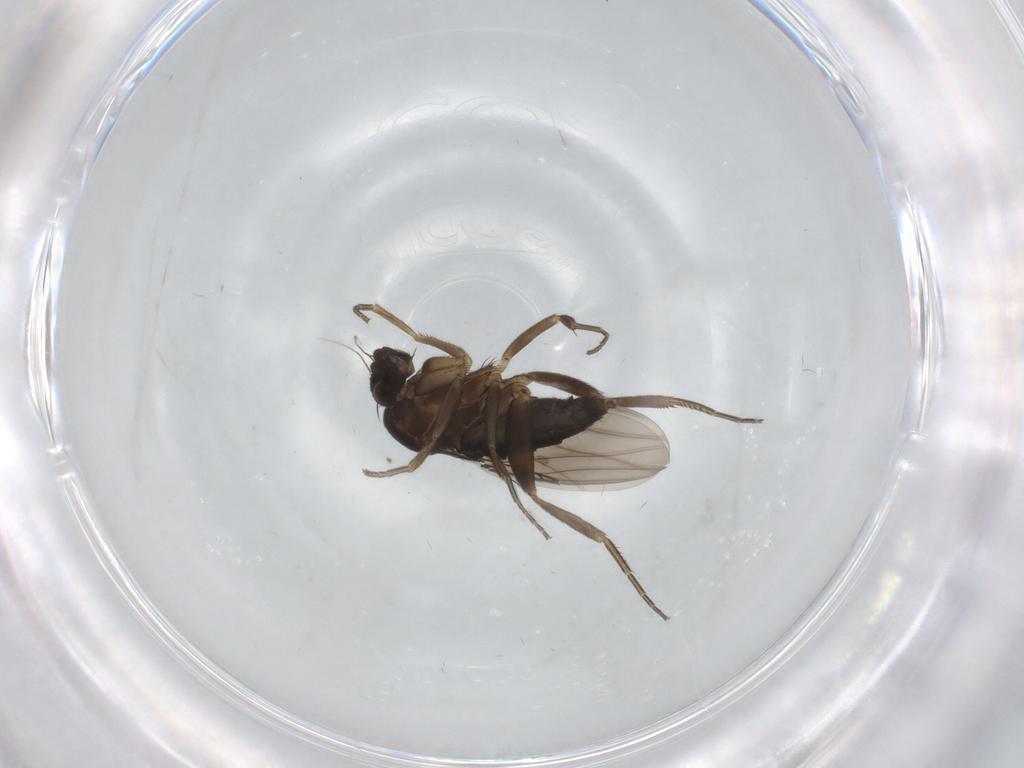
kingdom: Animalia
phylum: Arthropoda
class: Insecta
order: Diptera
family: Phoridae
